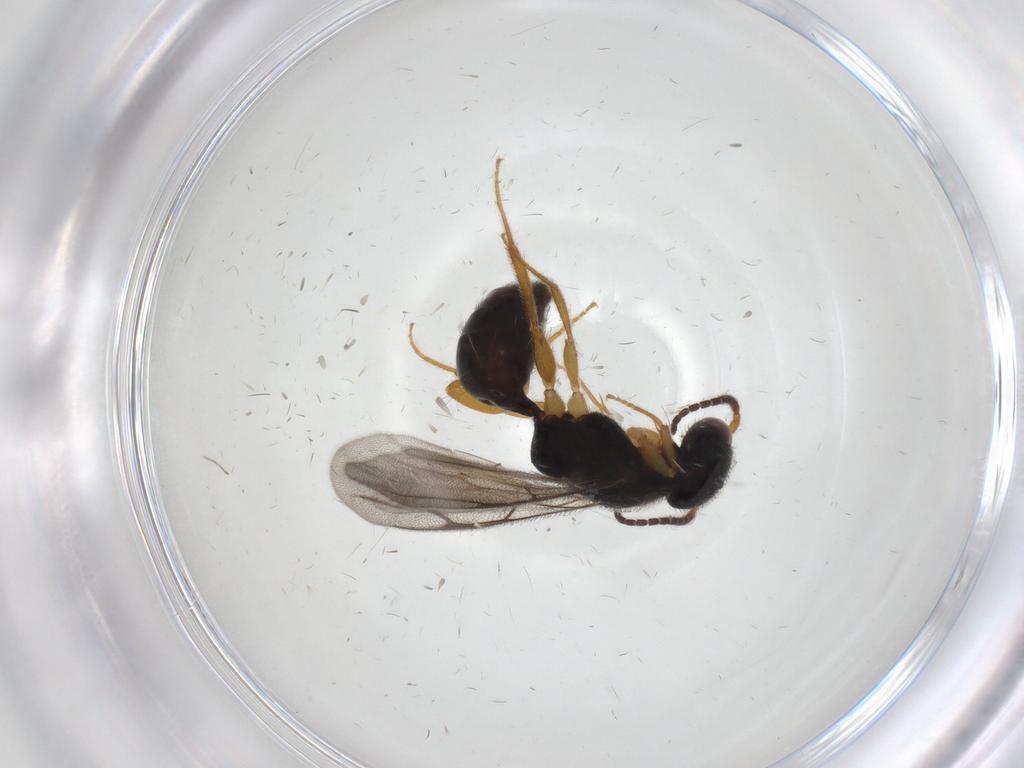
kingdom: Animalia
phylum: Arthropoda
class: Insecta
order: Hymenoptera
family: Bethylidae
